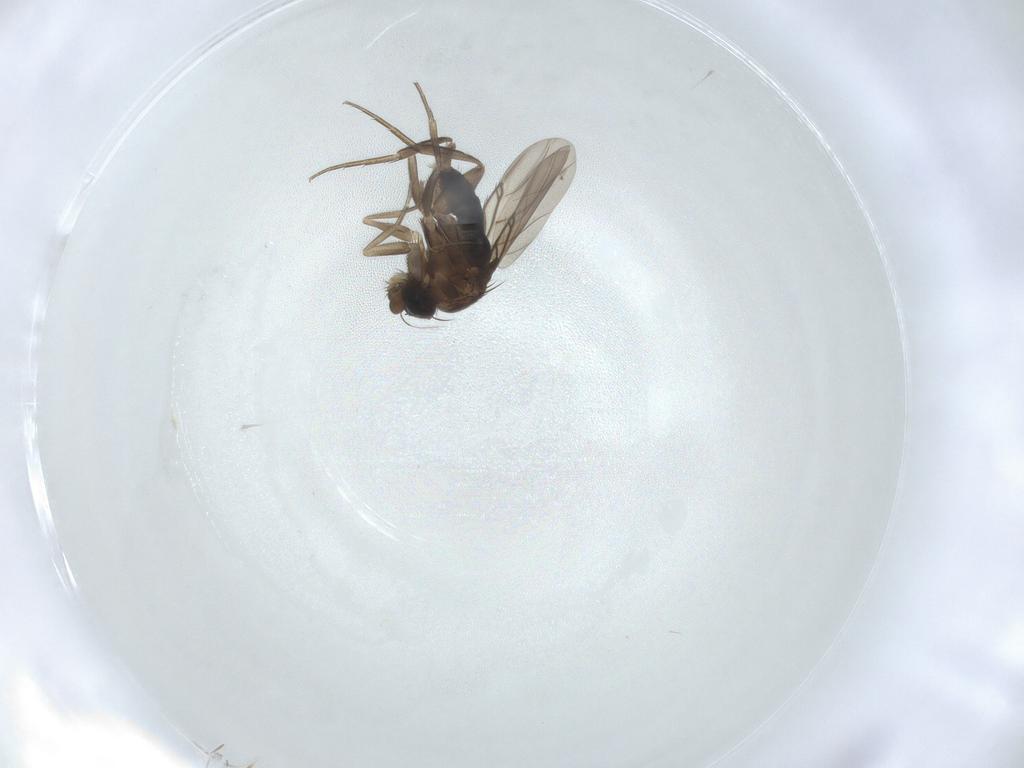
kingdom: Animalia
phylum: Arthropoda
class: Insecta
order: Diptera
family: Phoridae
